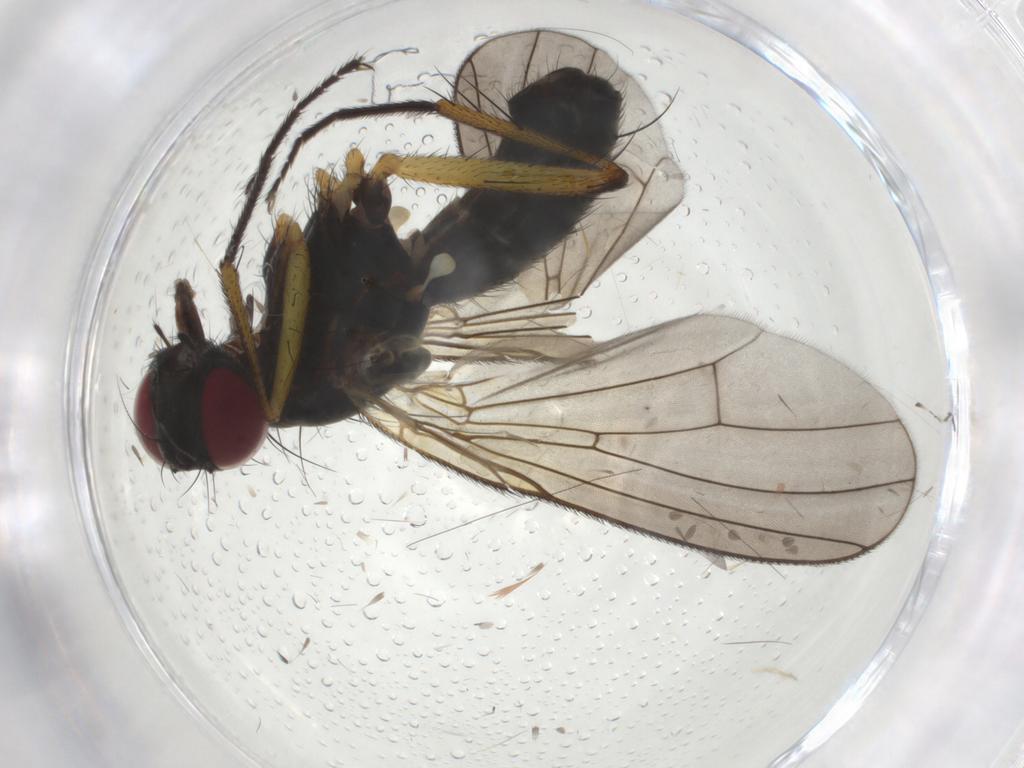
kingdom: Animalia
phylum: Arthropoda
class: Insecta
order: Diptera
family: Muscidae
